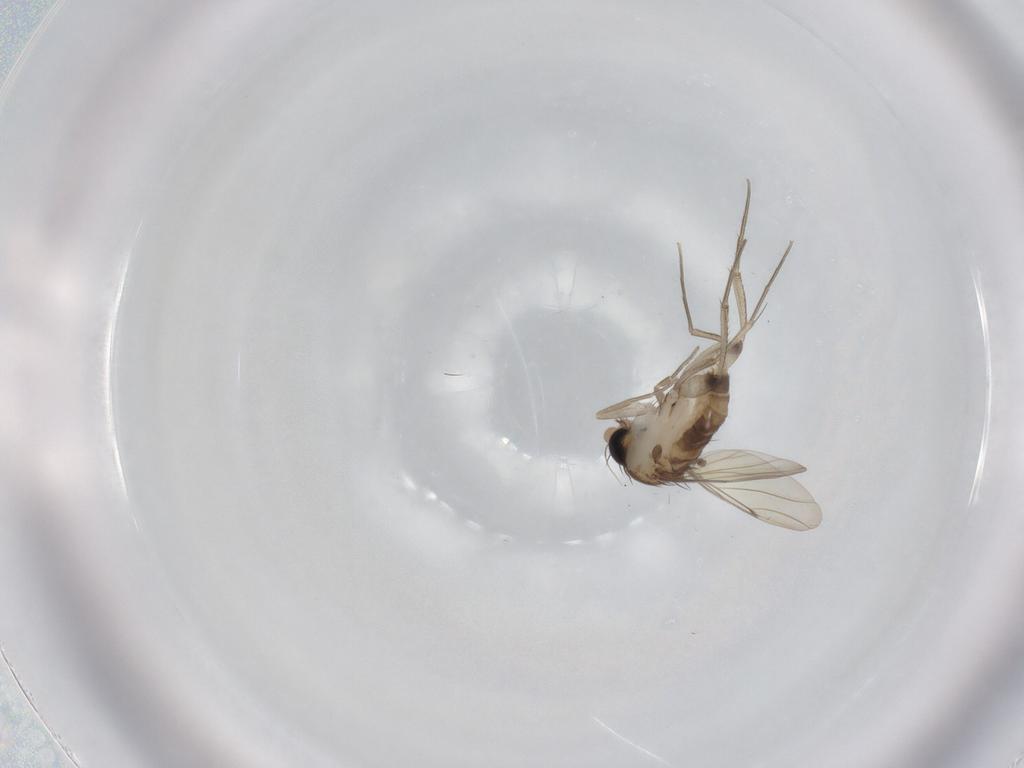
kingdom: Animalia
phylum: Arthropoda
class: Insecta
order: Diptera
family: Phoridae
